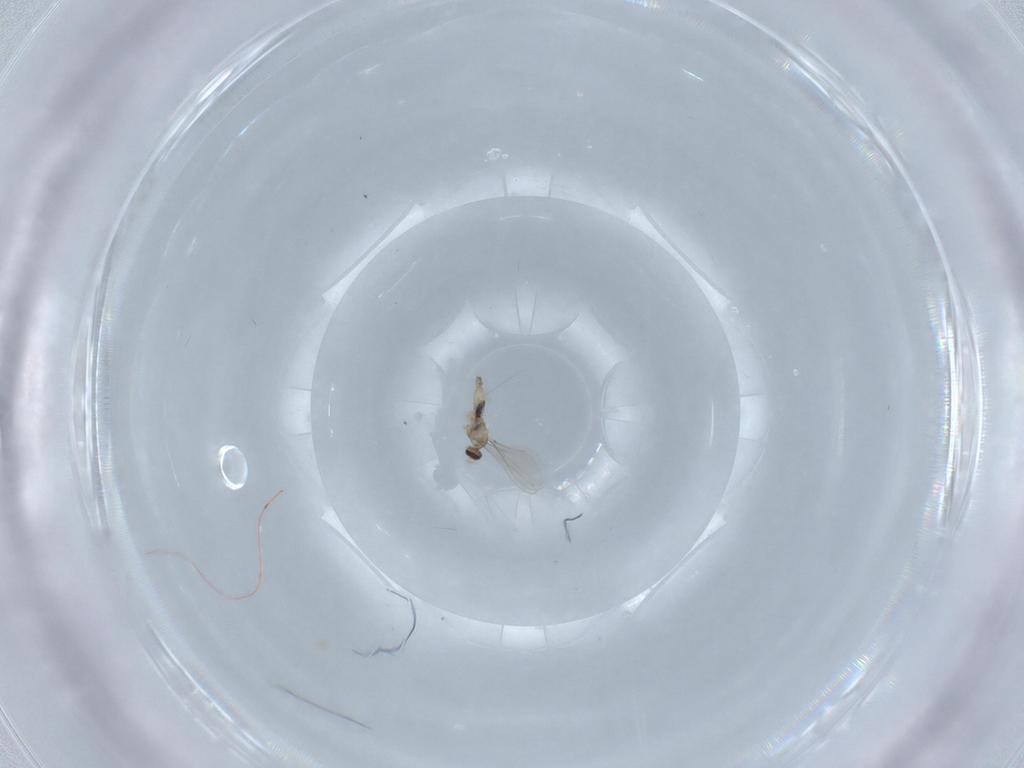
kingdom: Animalia
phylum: Arthropoda
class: Insecta
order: Diptera
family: Cecidomyiidae
